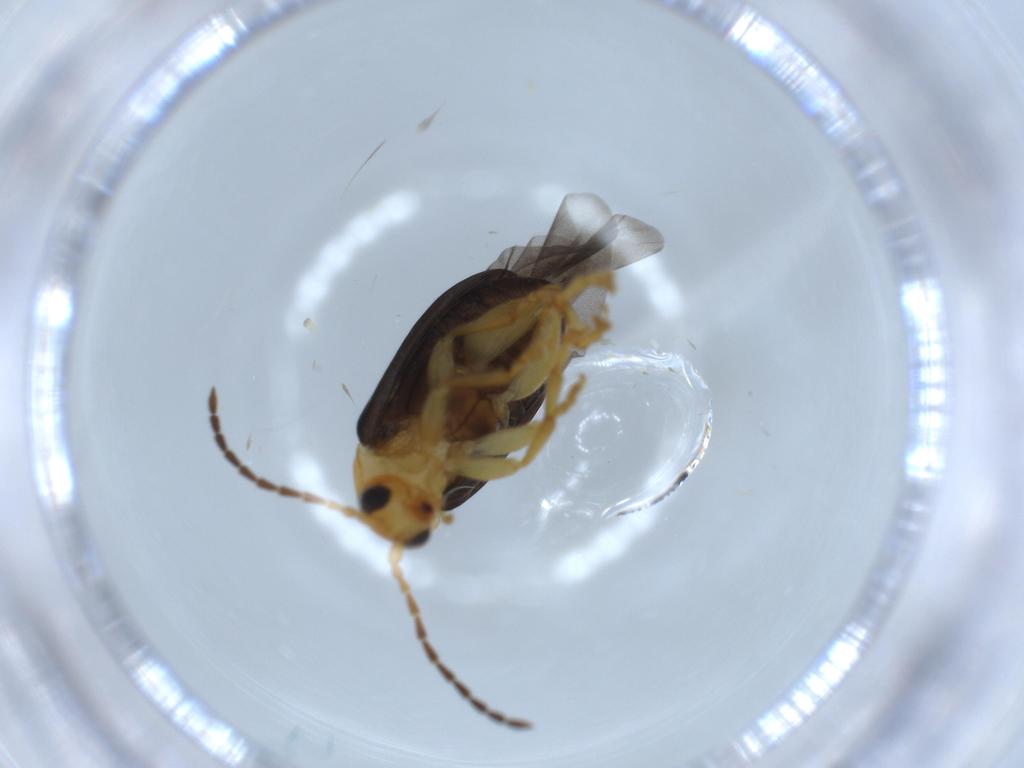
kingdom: Animalia
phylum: Arthropoda
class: Insecta
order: Coleoptera
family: Chrysomelidae
